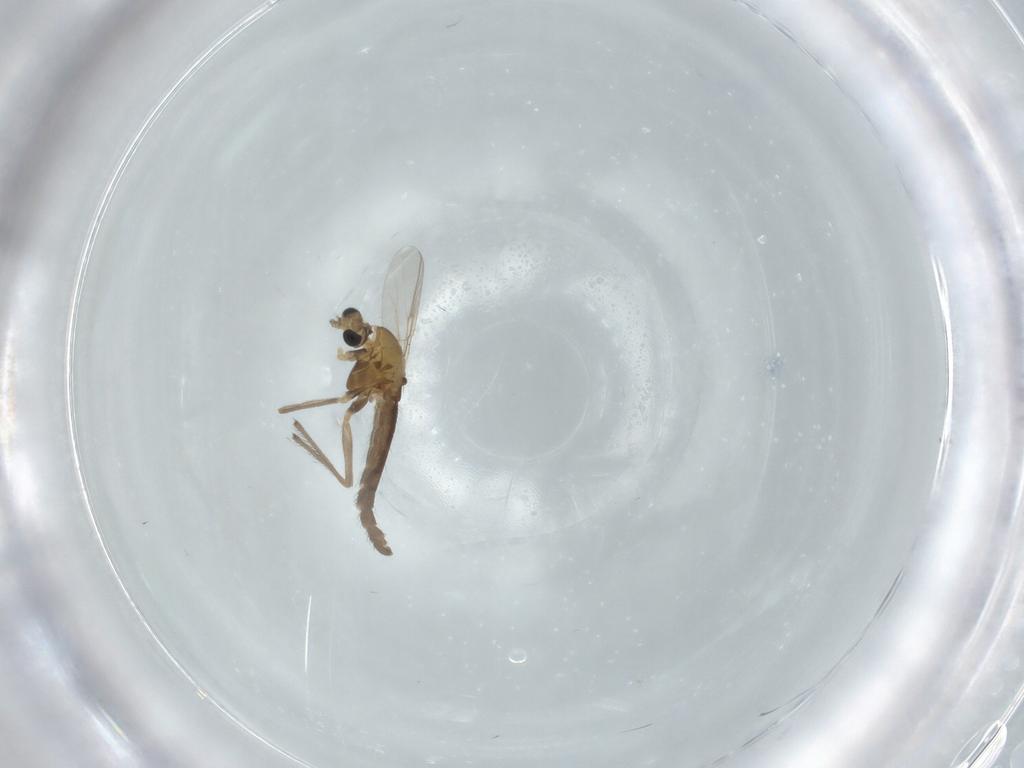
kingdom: Animalia
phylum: Arthropoda
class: Insecta
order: Diptera
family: Chironomidae
